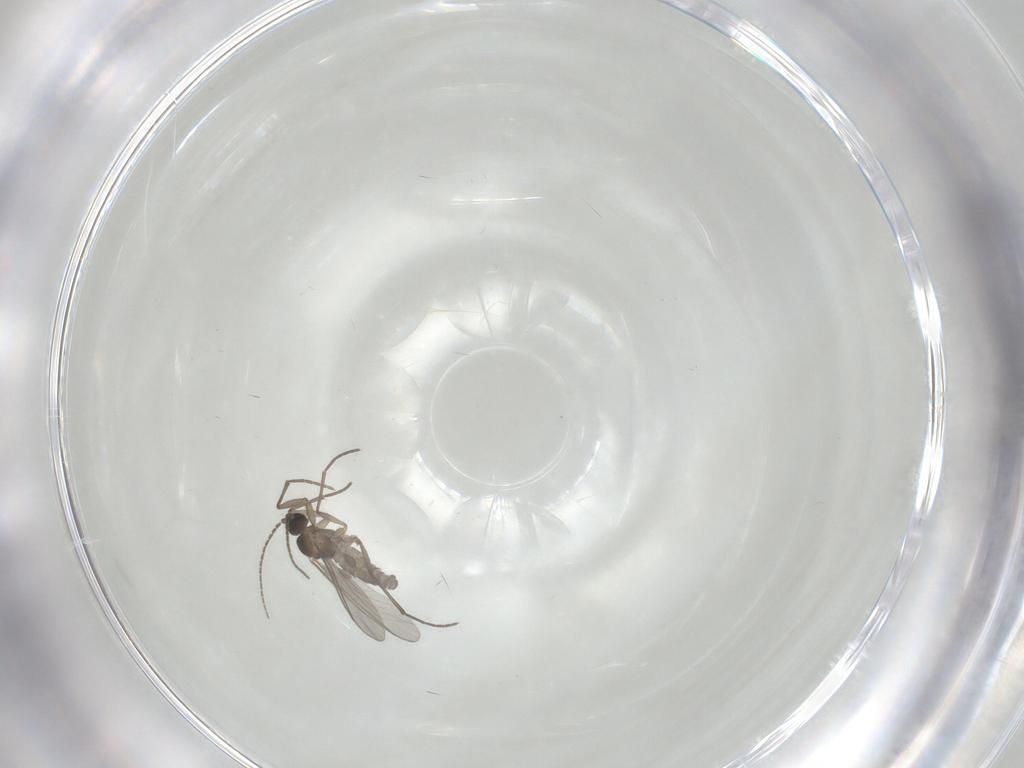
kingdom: Animalia
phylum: Arthropoda
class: Insecta
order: Diptera
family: Sciaridae
